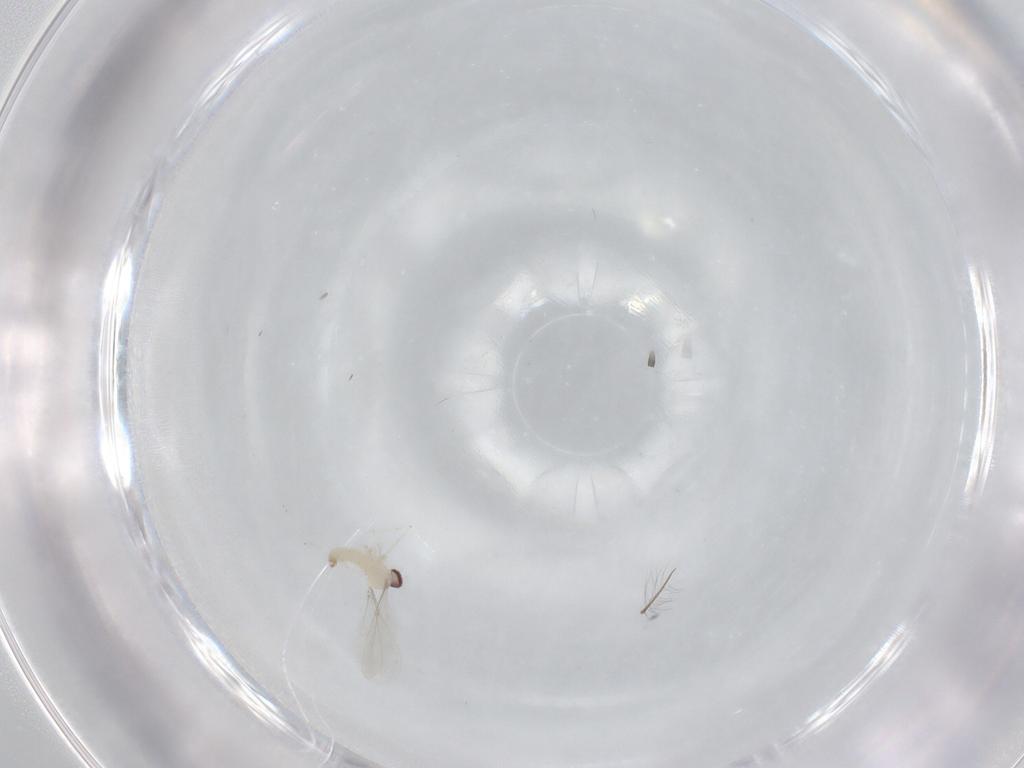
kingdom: Animalia
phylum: Arthropoda
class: Insecta
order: Diptera
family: Cecidomyiidae
